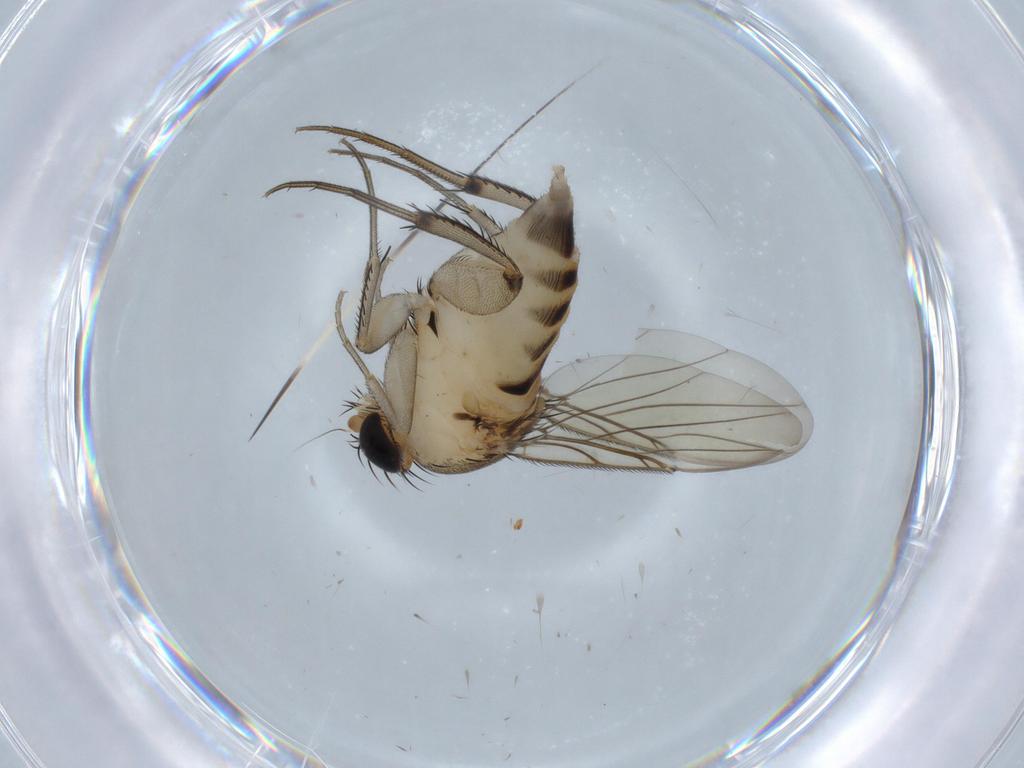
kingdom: Animalia
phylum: Arthropoda
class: Insecta
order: Diptera
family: Phoridae
